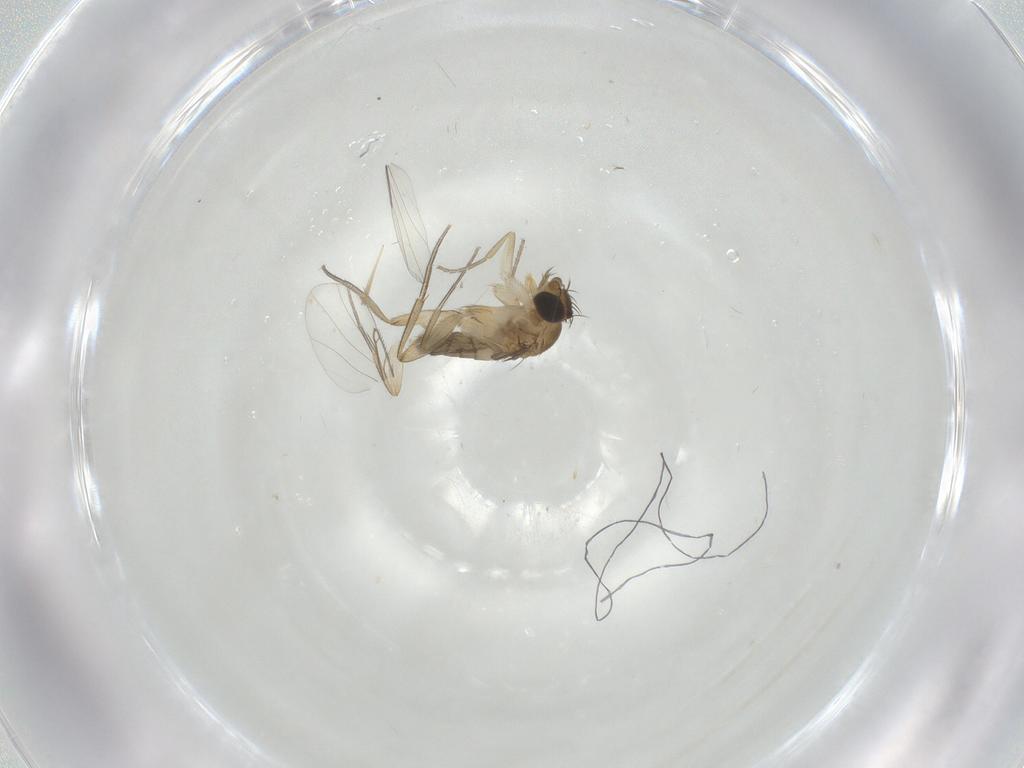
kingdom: Animalia
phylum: Arthropoda
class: Insecta
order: Diptera
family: Phoridae
